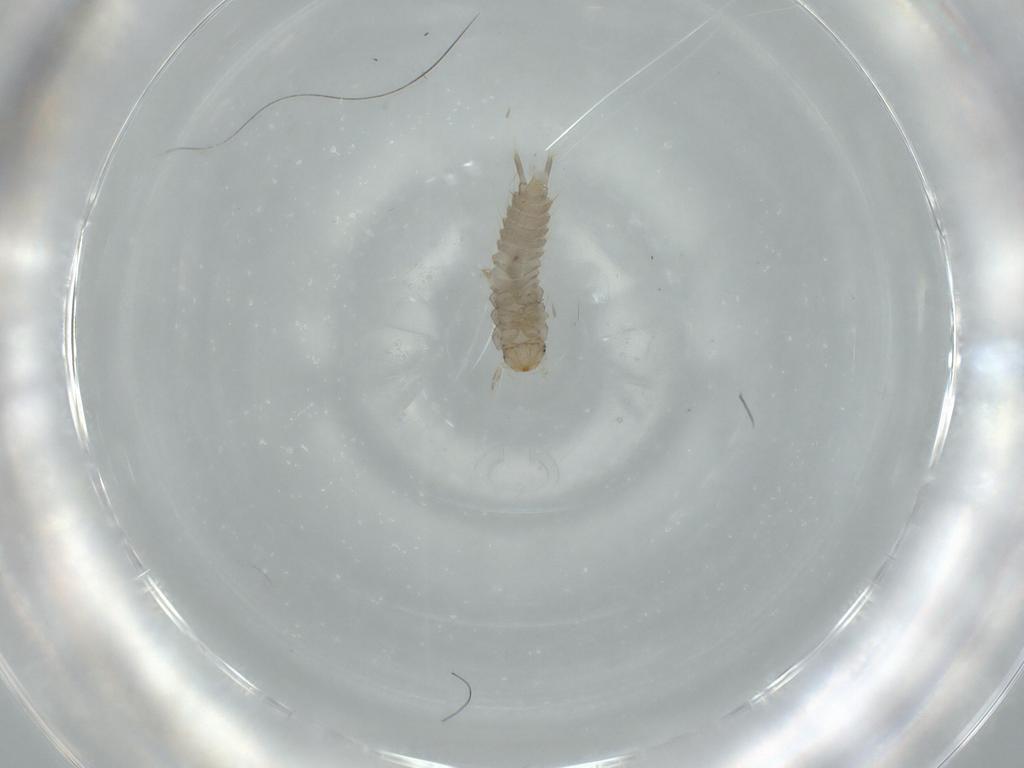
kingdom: Animalia
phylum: Arthropoda
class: Insecta
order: Coleoptera
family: Staphylinidae
